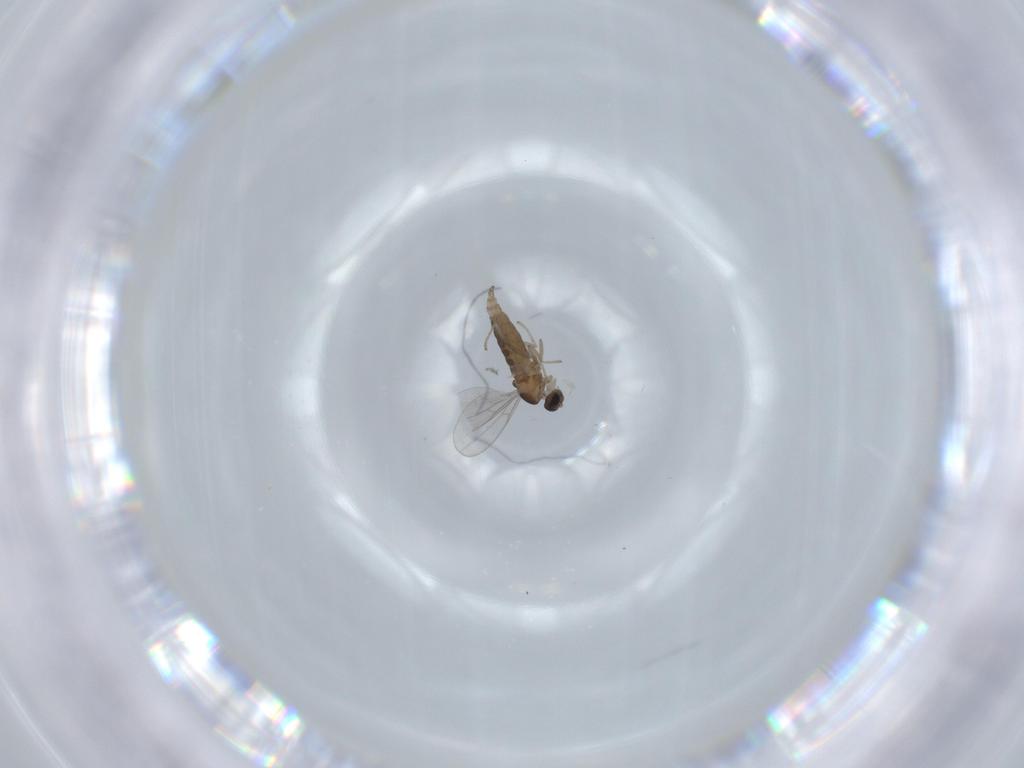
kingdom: Animalia
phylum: Arthropoda
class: Insecta
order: Diptera
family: Cecidomyiidae
